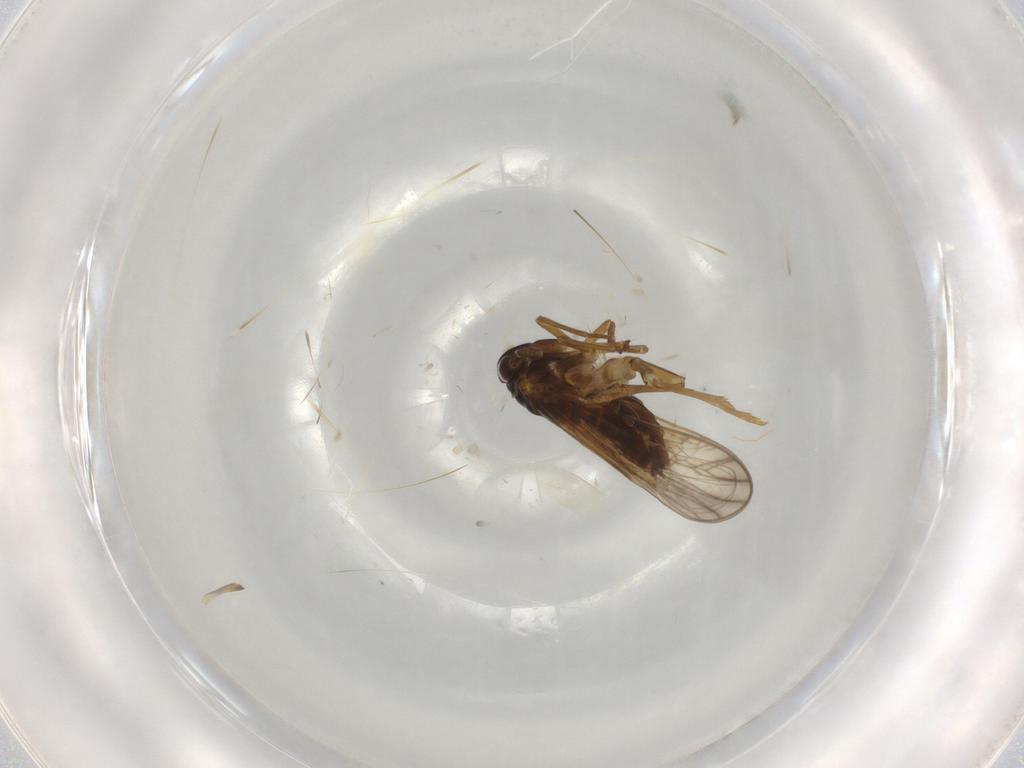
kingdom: Animalia
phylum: Arthropoda
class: Insecta
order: Hemiptera
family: Delphacidae
